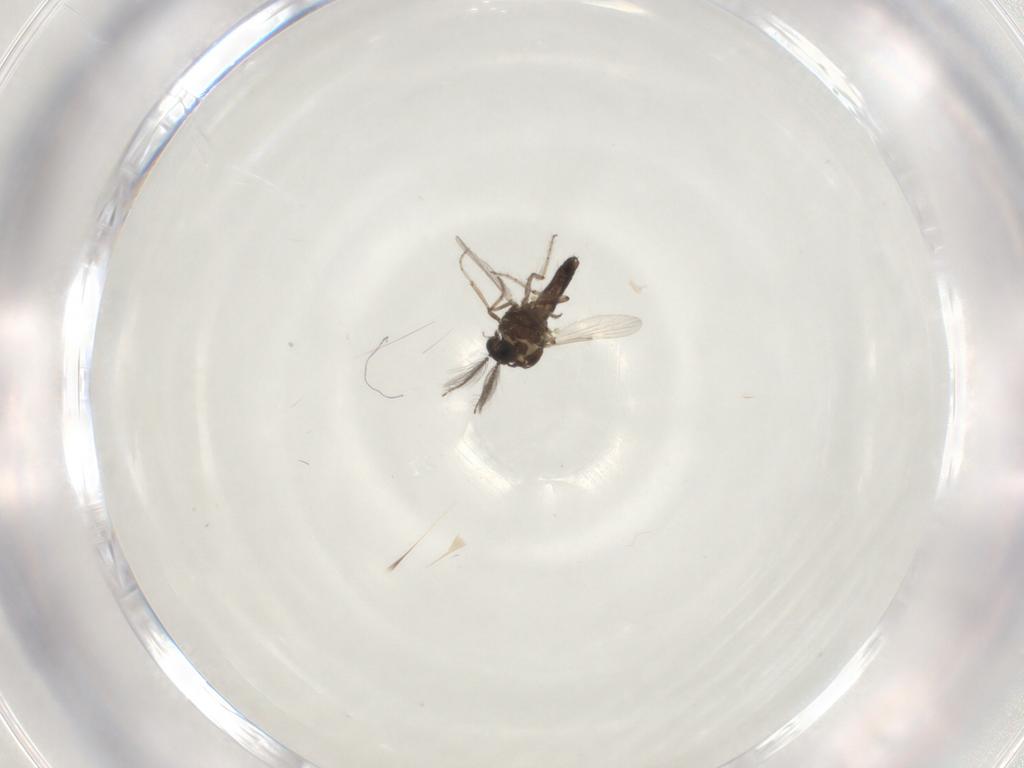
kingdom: Animalia
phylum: Arthropoda
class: Insecta
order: Diptera
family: Ceratopogonidae
